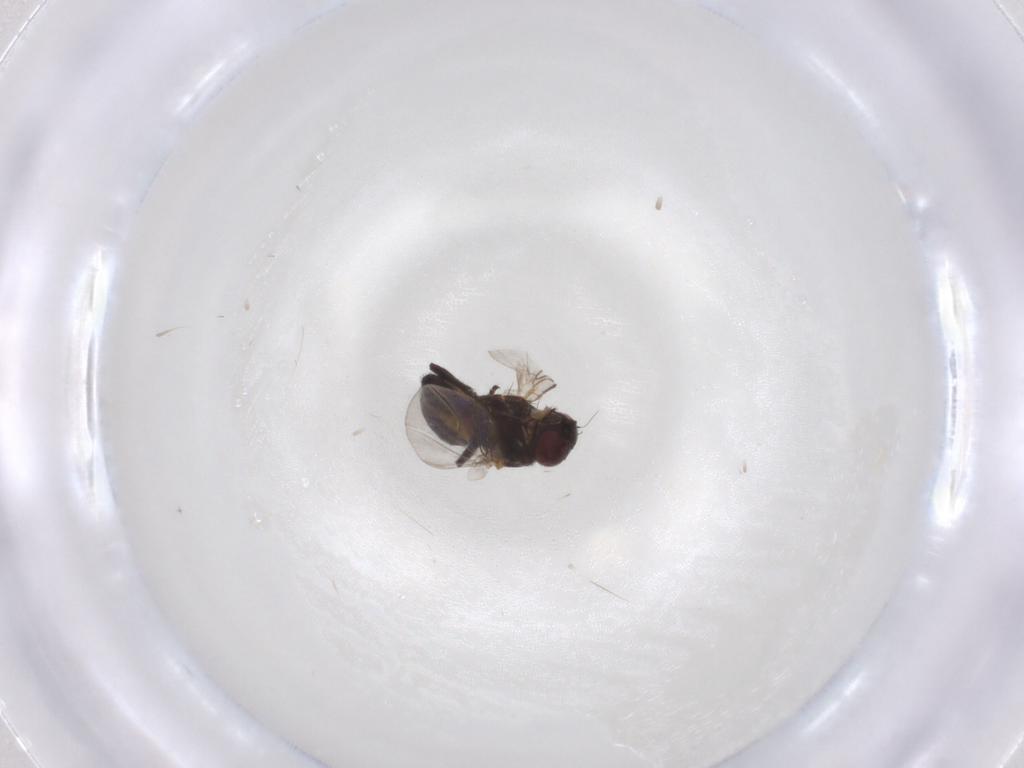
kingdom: Animalia
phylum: Arthropoda
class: Insecta
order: Diptera
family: Agromyzidae
